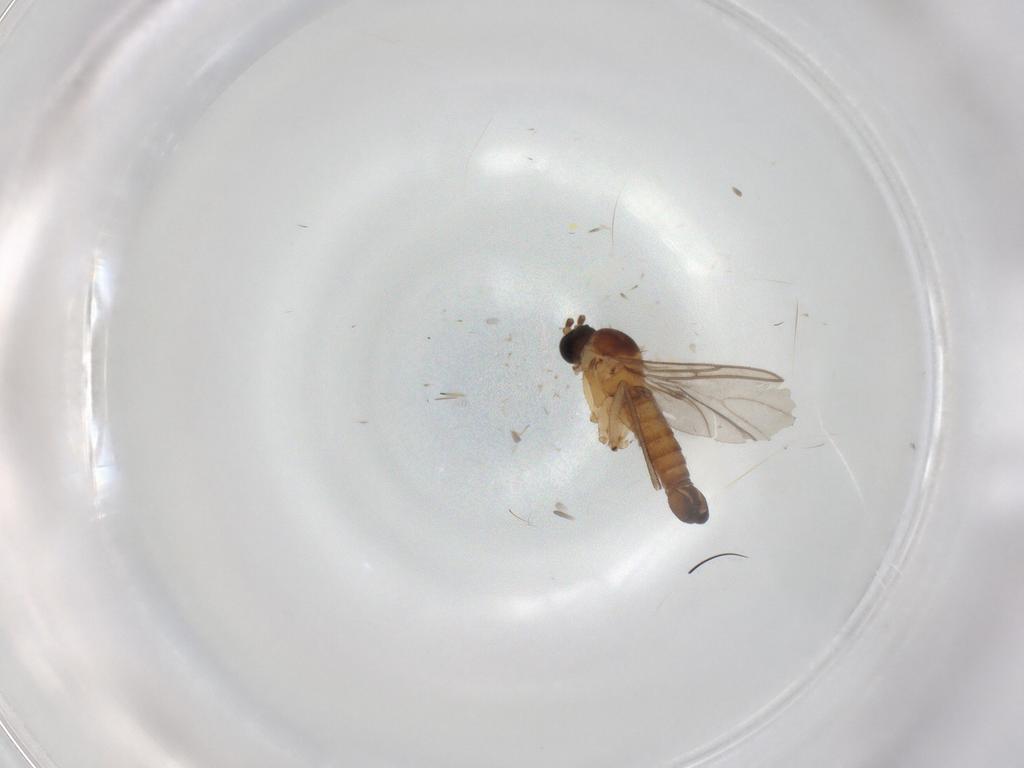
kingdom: Animalia
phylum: Arthropoda
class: Insecta
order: Diptera
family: Sciaridae
